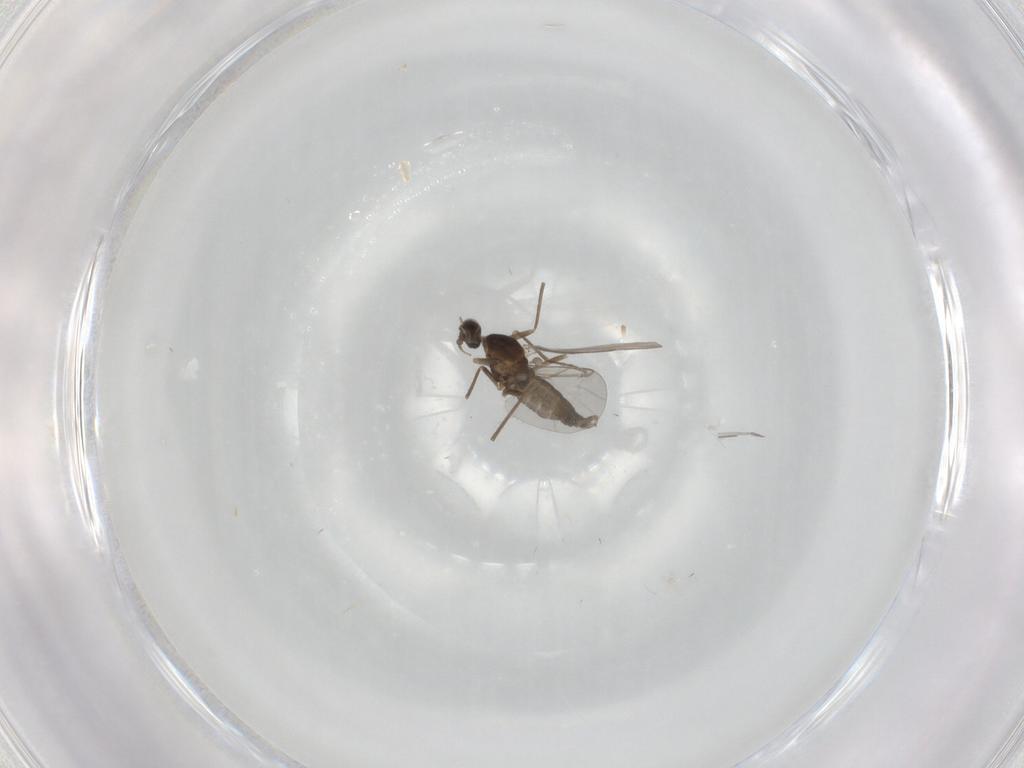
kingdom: Animalia
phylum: Arthropoda
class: Insecta
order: Diptera
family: Cecidomyiidae
